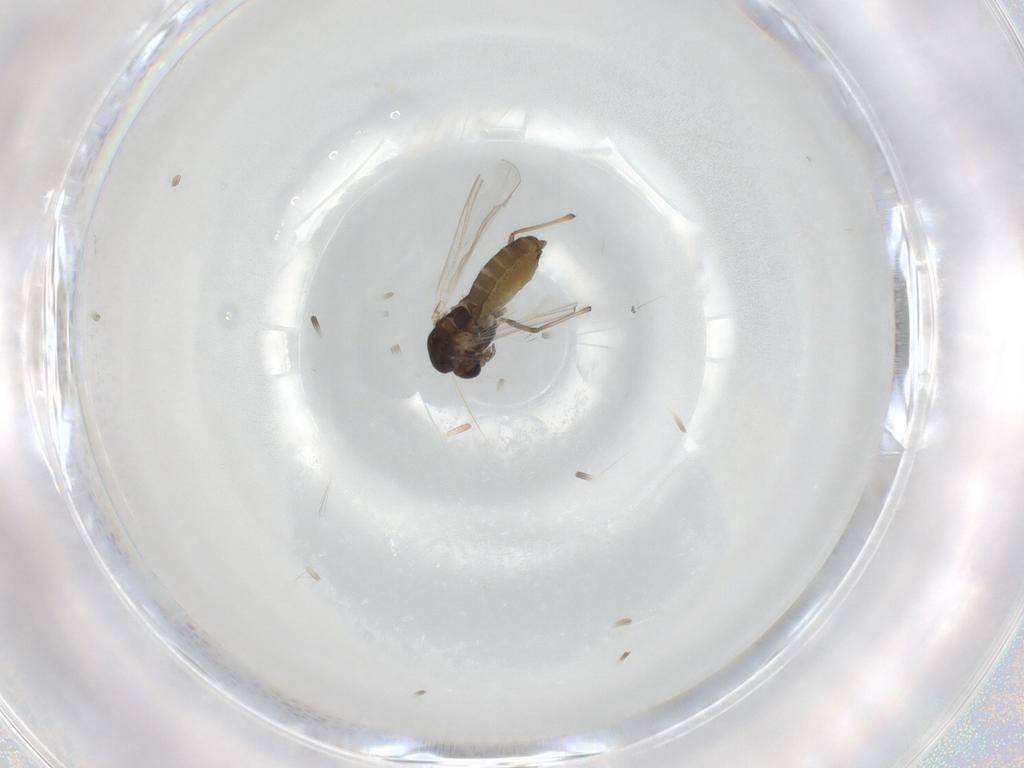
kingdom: Animalia
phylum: Arthropoda
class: Insecta
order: Diptera
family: Chironomidae
